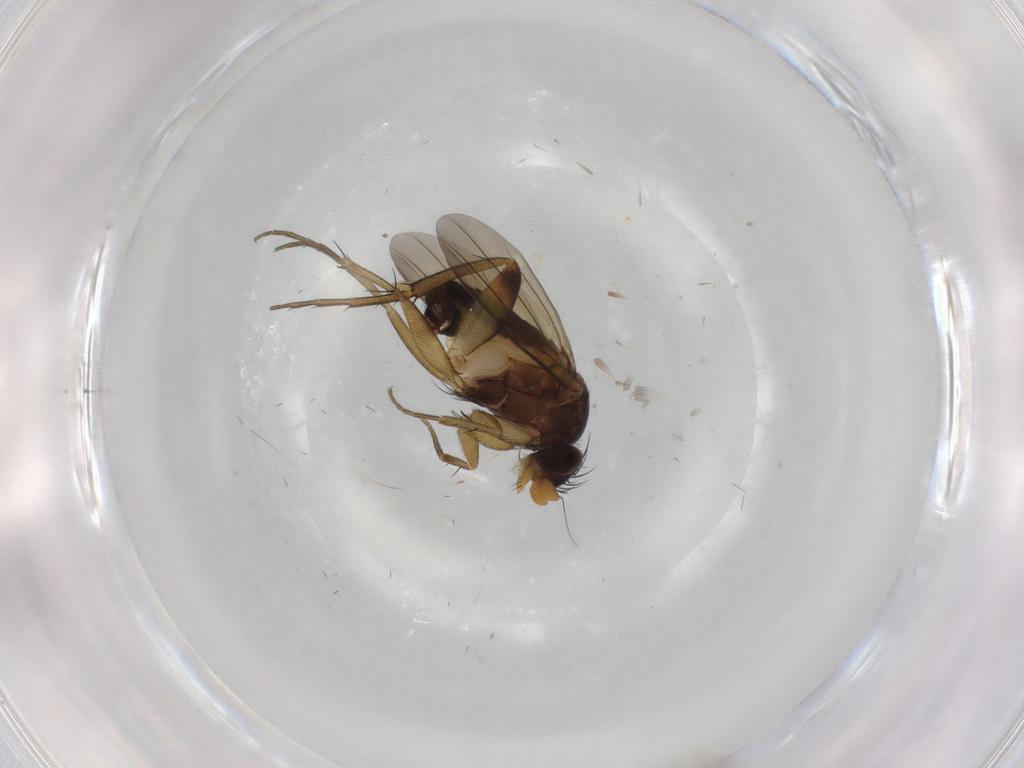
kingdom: Animalia
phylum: Arthropoda
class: Insecta
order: Diptera
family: Phoridae
